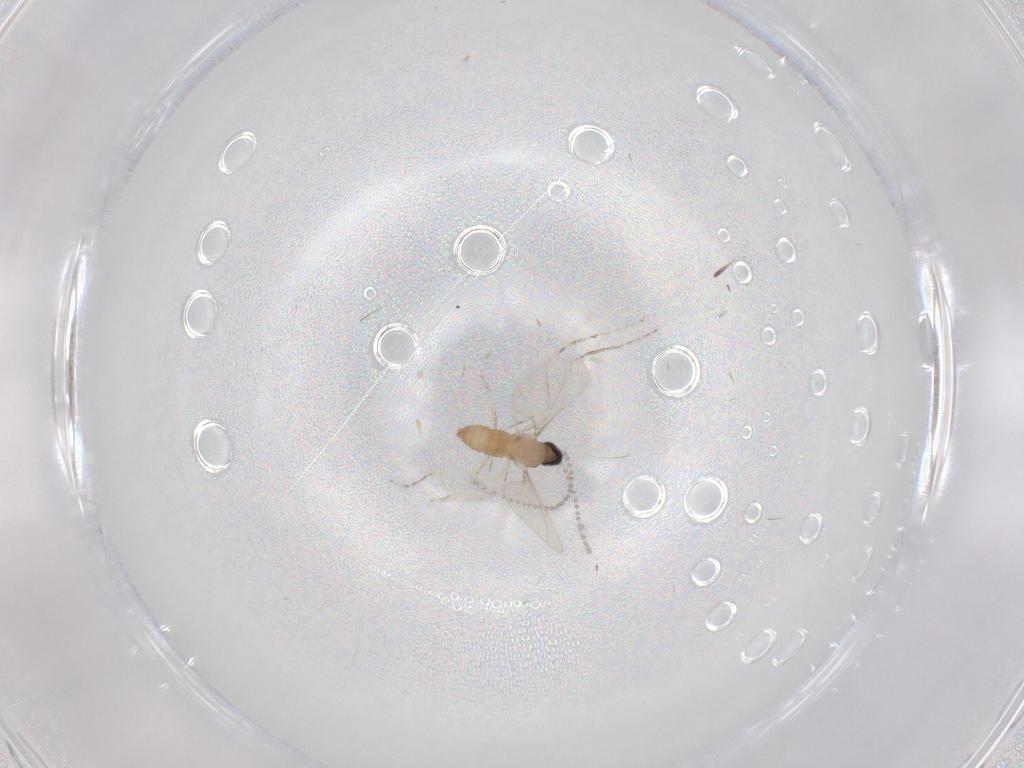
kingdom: Animalia
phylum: Arthropoda
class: Insecta
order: Diptera
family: Cecidomyiidae
